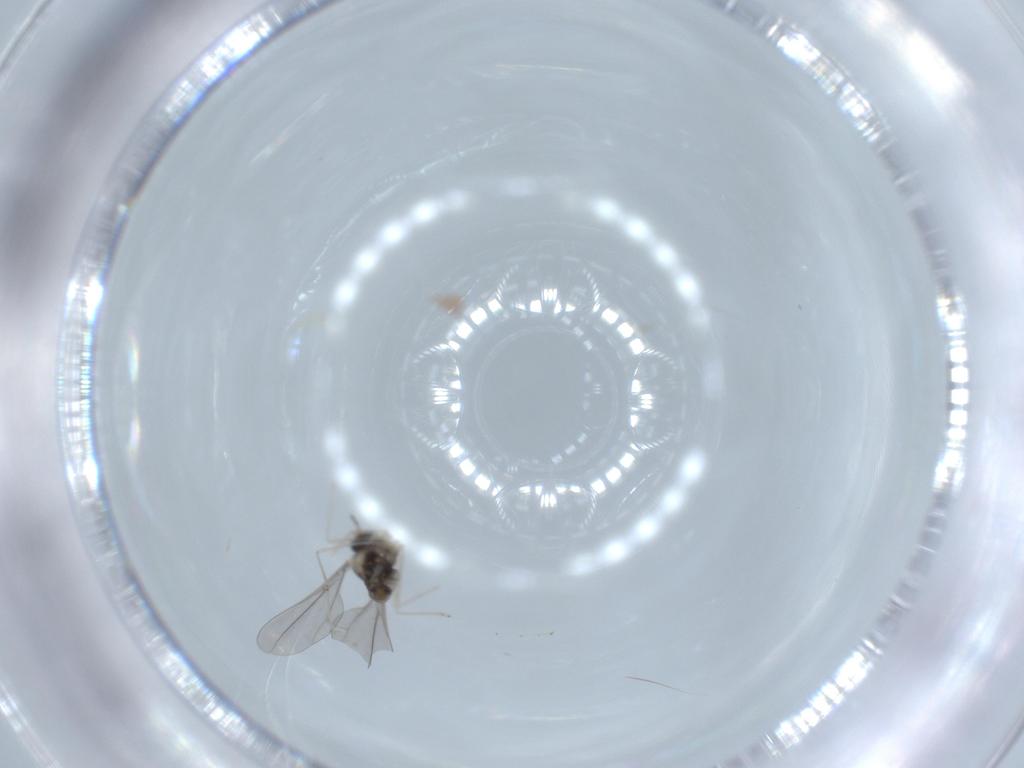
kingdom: Animalia
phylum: Arthropoda
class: Insecta
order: Diptera
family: Cecidomyiidae
